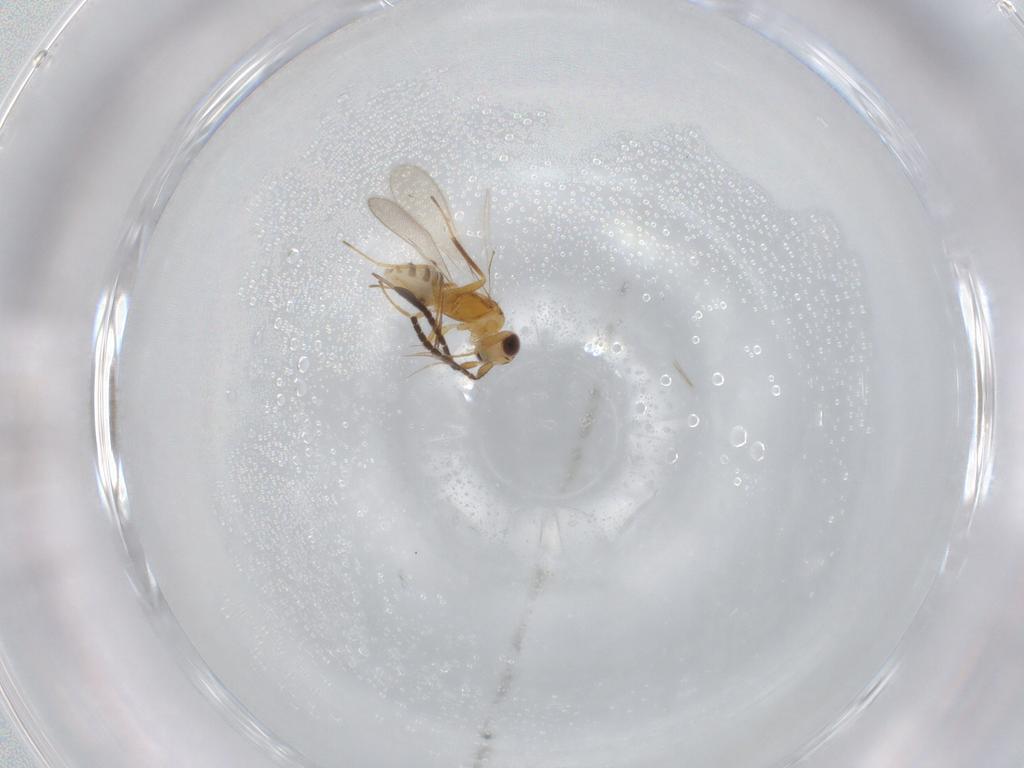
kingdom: Animalia
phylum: Arthropoda
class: Insecta
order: Hymenoptera
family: Mymaridae
